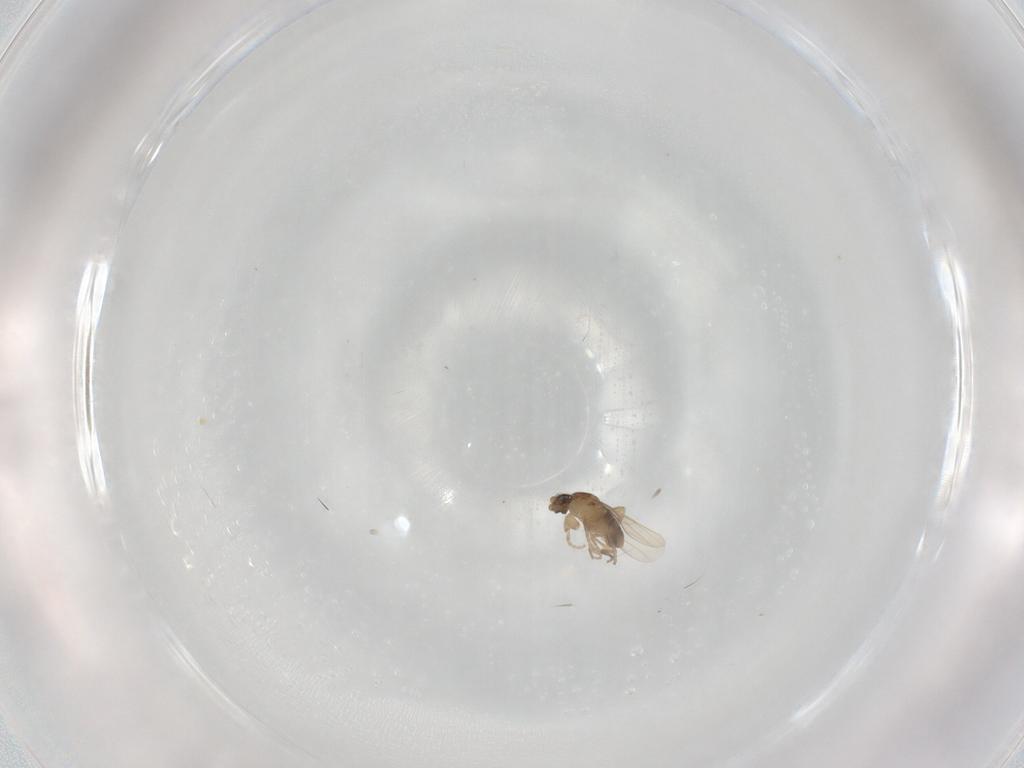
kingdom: Animalia
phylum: Arthropoda
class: Insecta
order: Diptera
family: Phoridae
